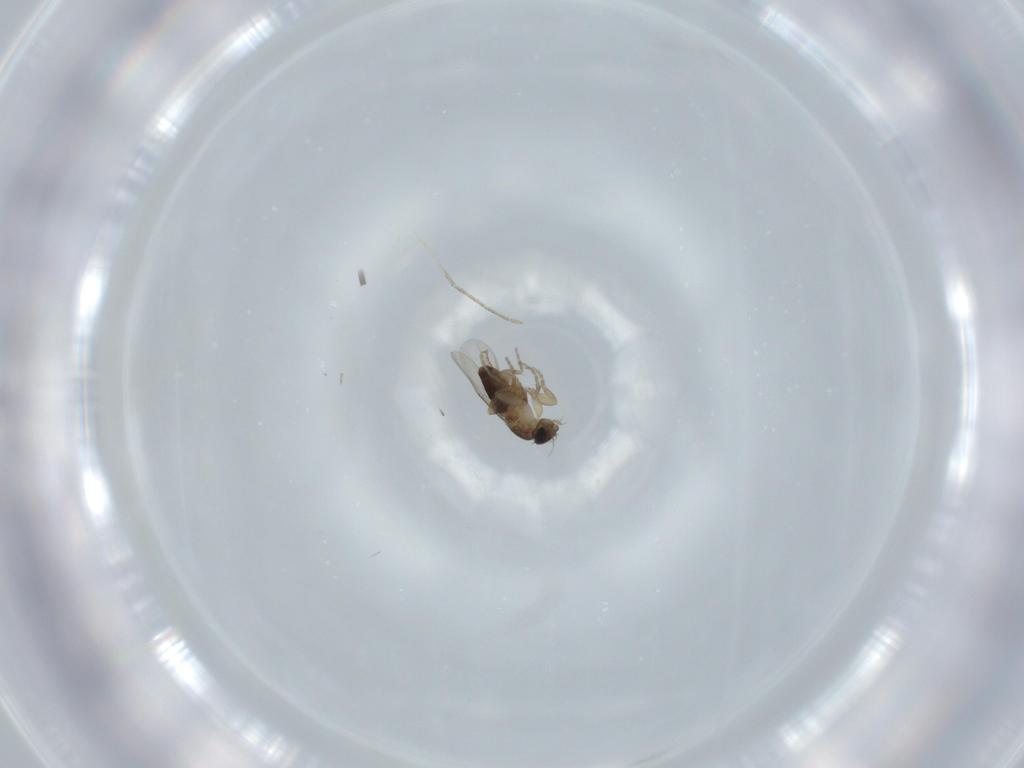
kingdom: Animalia
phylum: Arthropoda
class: Insecta
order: Diptera
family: Phoridae
